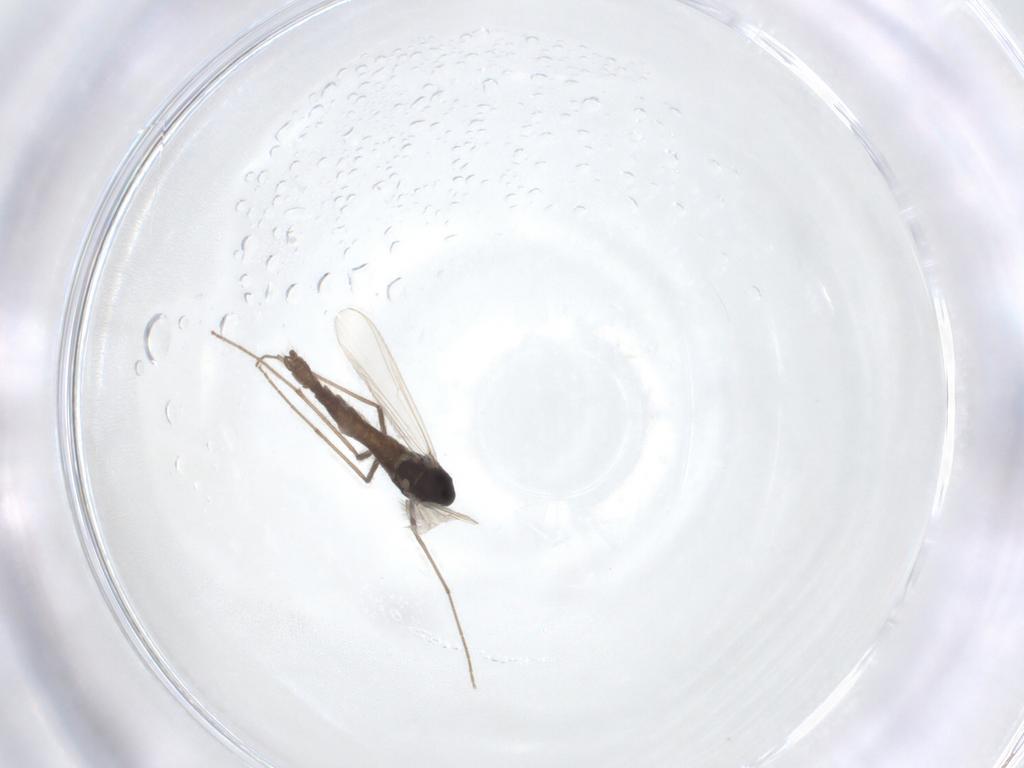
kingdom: Animalia
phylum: Arthropoda
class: Insecta
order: Diptera
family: Chironomidae
